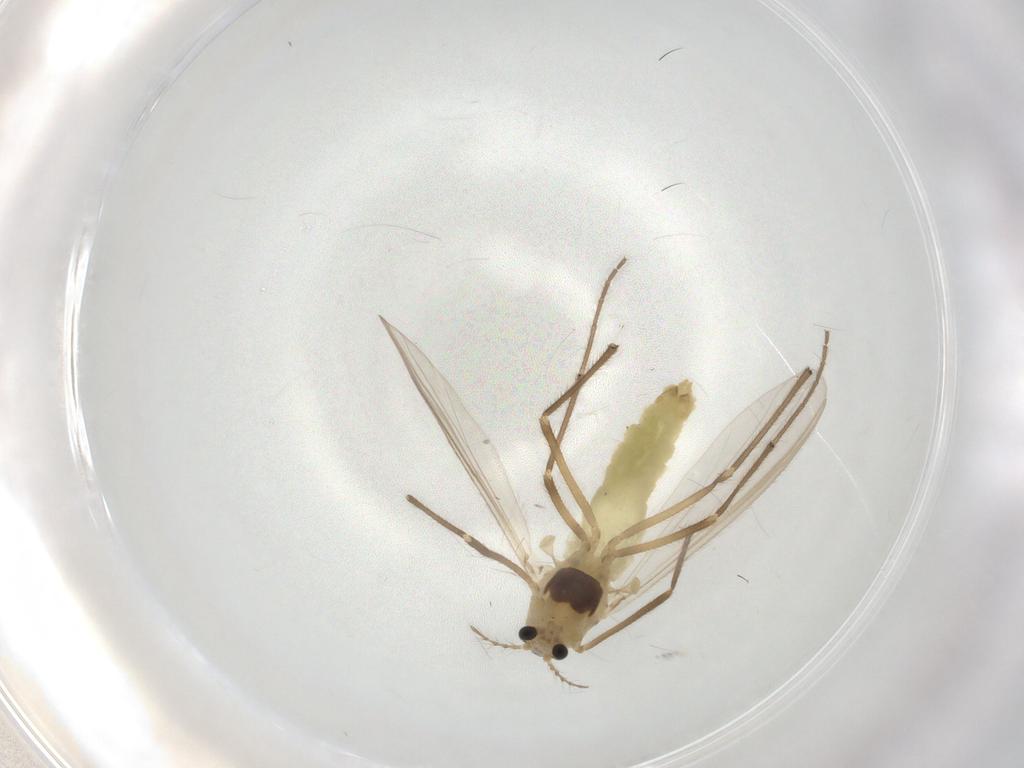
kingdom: Animalia
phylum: Arthropoda
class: Insecta
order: Diptera
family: Chironomidae
